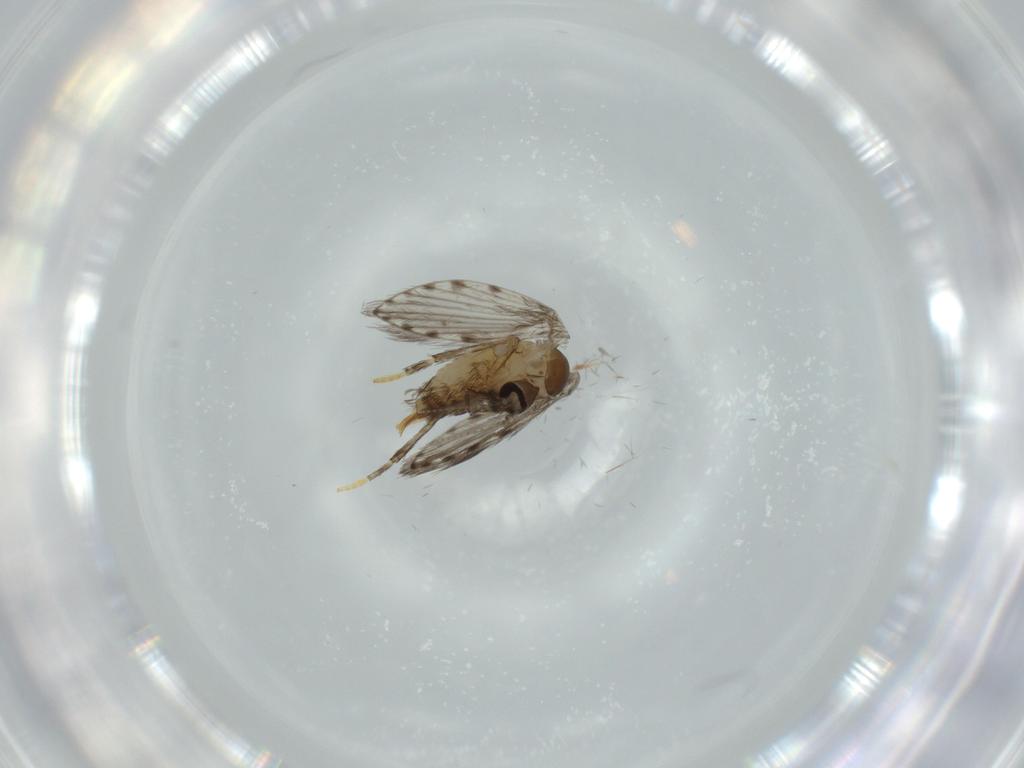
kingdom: Animalia
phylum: Arthropoda
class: Insecta
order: Diptera
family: Psychodidae
